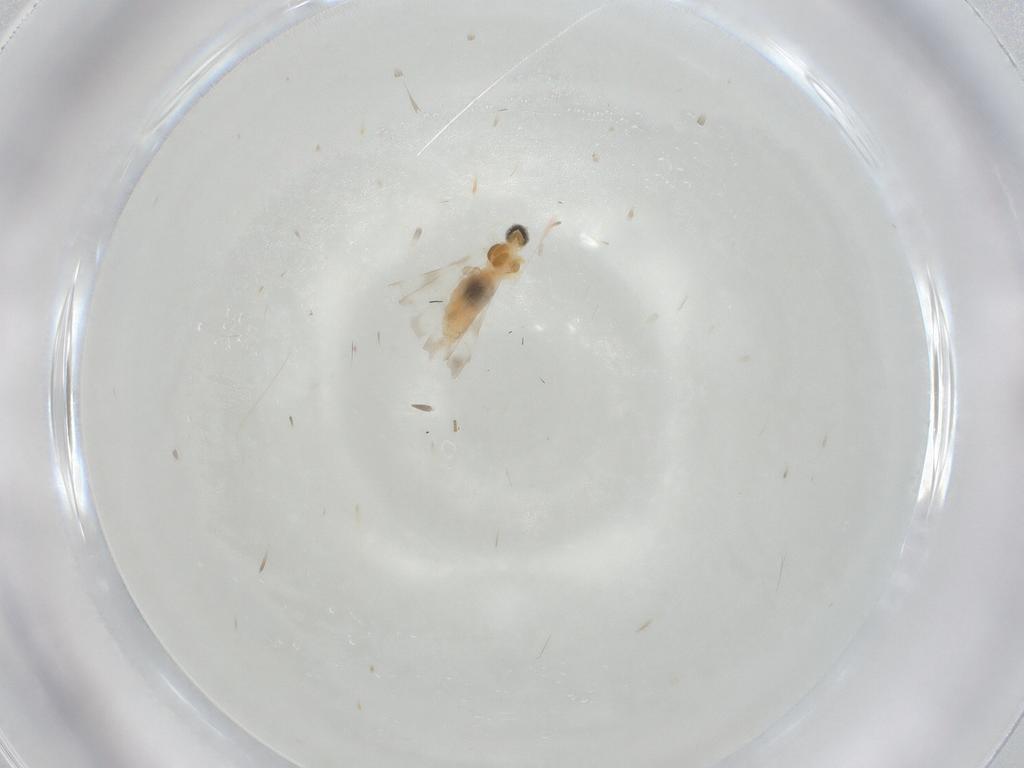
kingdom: Animalia
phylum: Arthropoda
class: Insecta
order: Diptera
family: Cecidomyiidae
